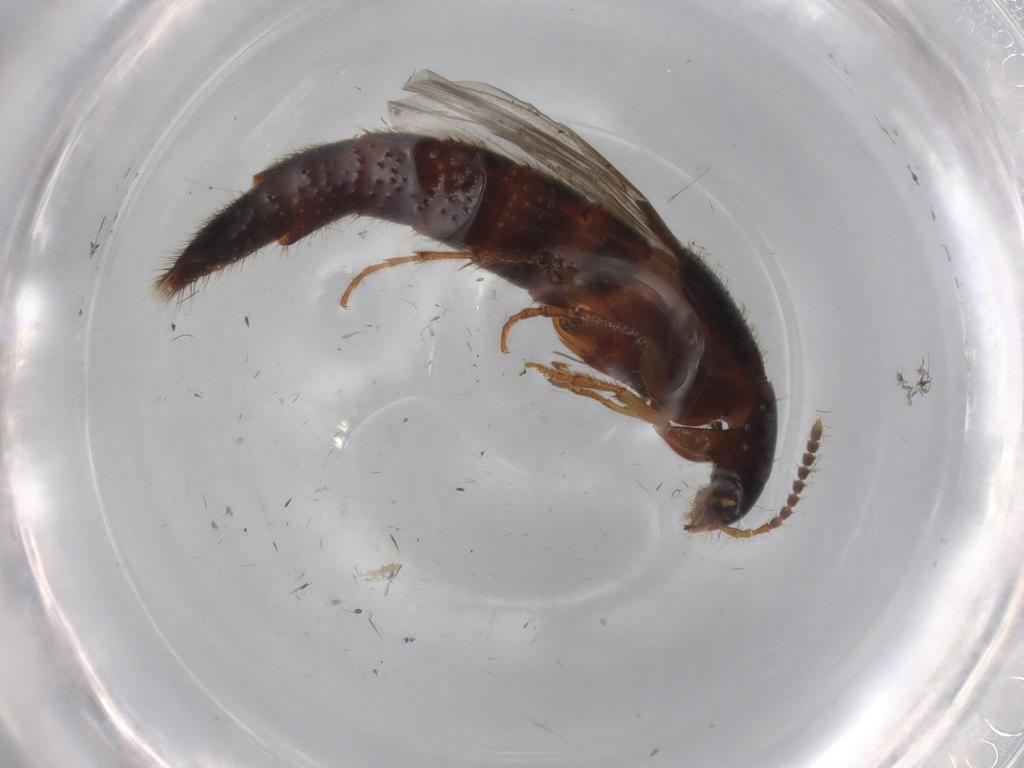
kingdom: Animalia
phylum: Arthropoda
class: Insecta
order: Coleoptera
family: Staphylinidae
